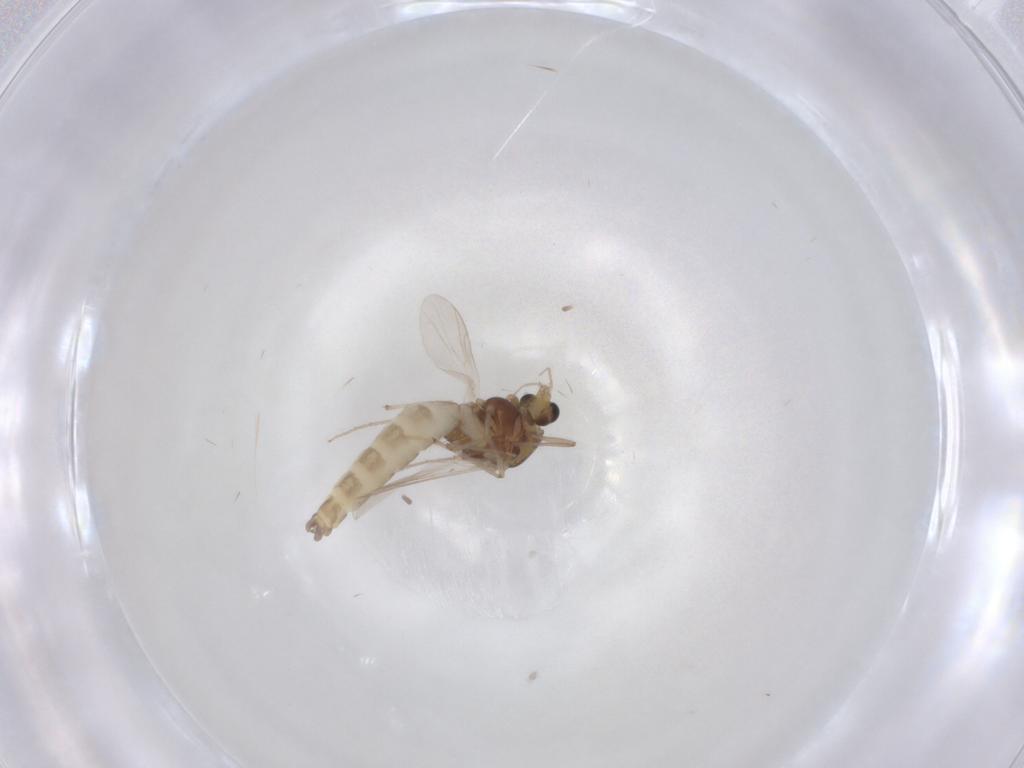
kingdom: Animalia
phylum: Arthropoda
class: Insecta
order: Diptera
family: Chironomidae
